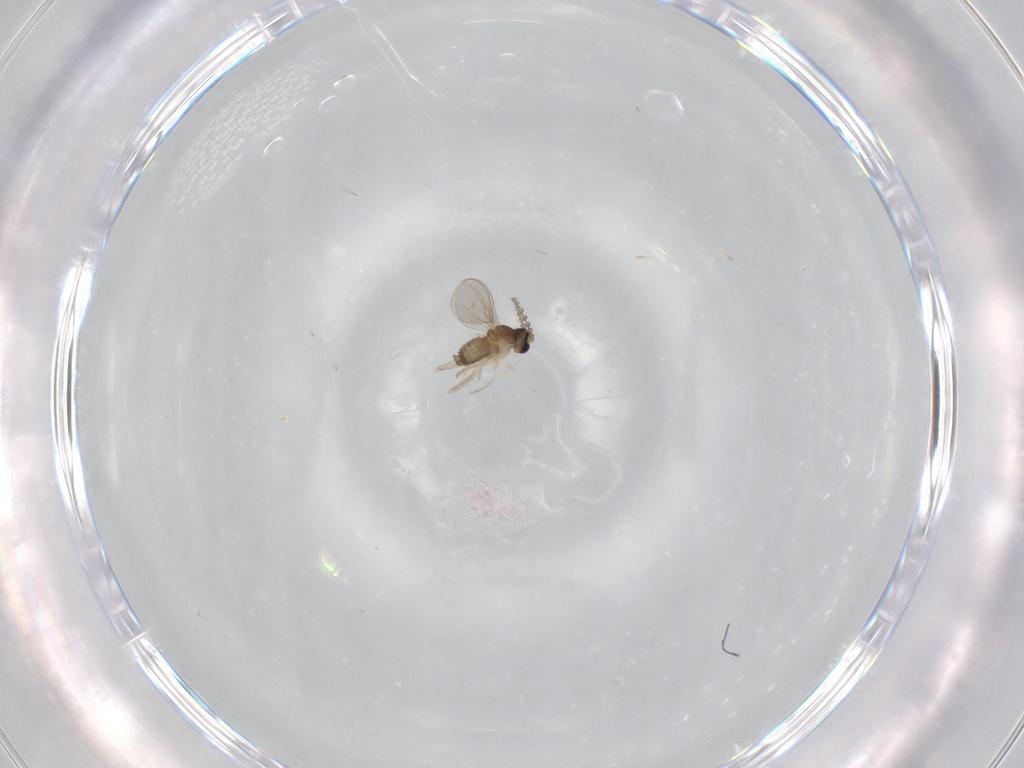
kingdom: Animalia
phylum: Arthropoda
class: Insecta
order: Diptera
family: Cecidomyiidae
